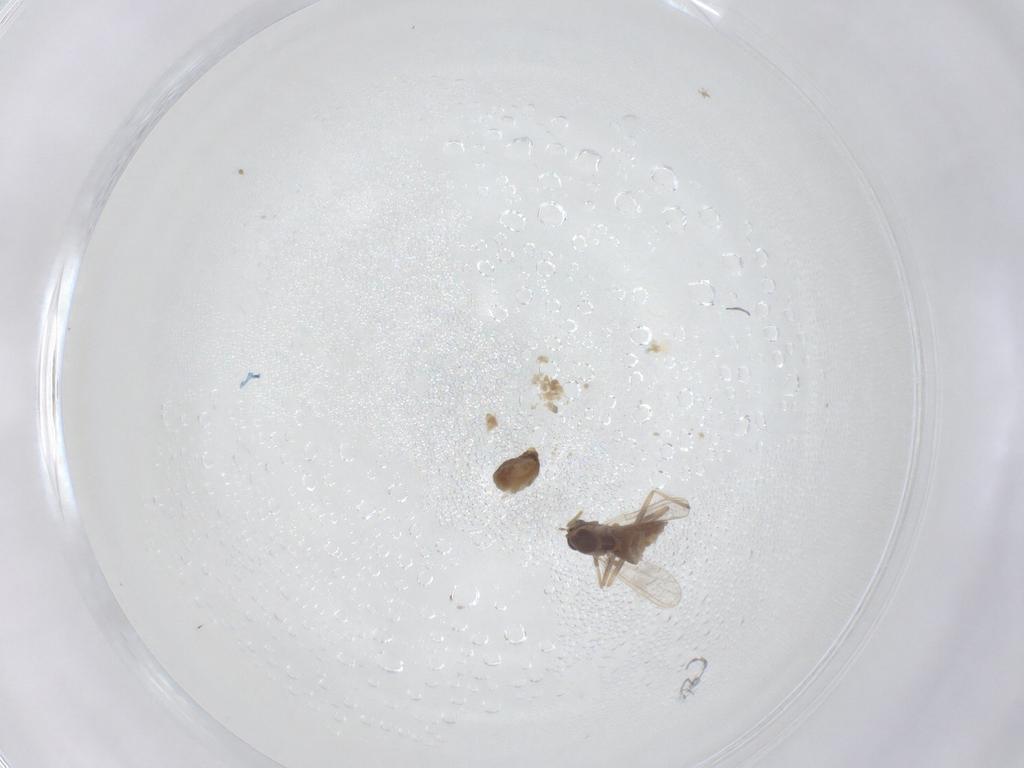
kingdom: Animalia
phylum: Arthropoda
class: Insecta
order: Diptera
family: Chironomidae
